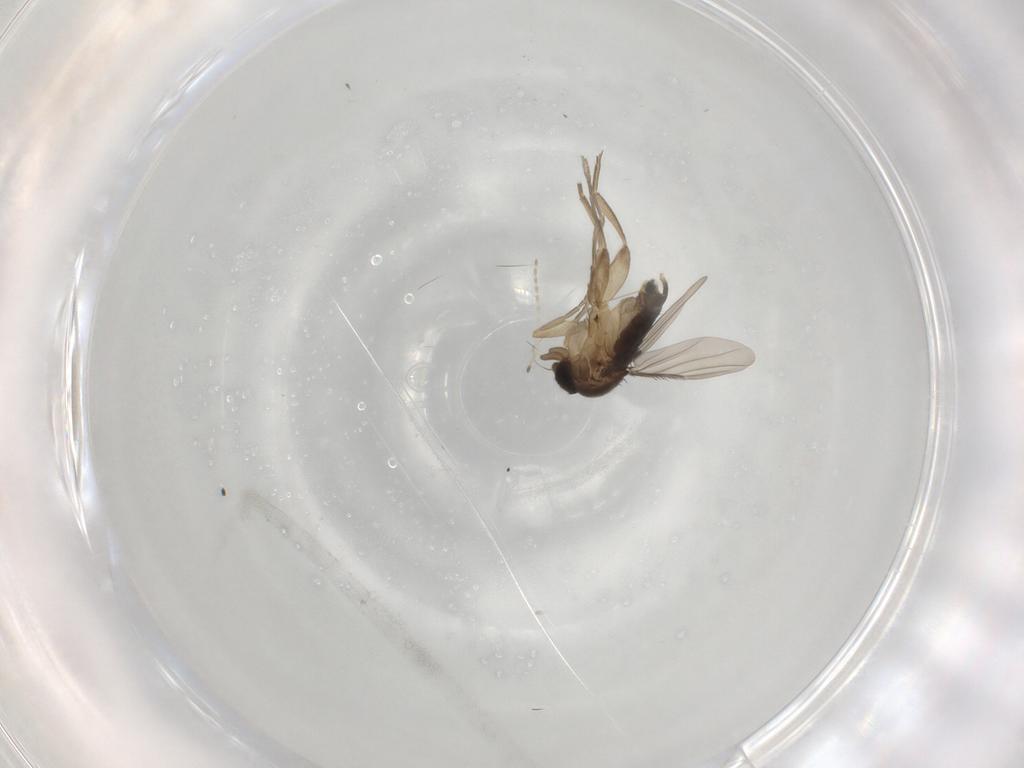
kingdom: Animalia
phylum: Arthropoda
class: Insecta
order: Diptera
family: Phoridae
